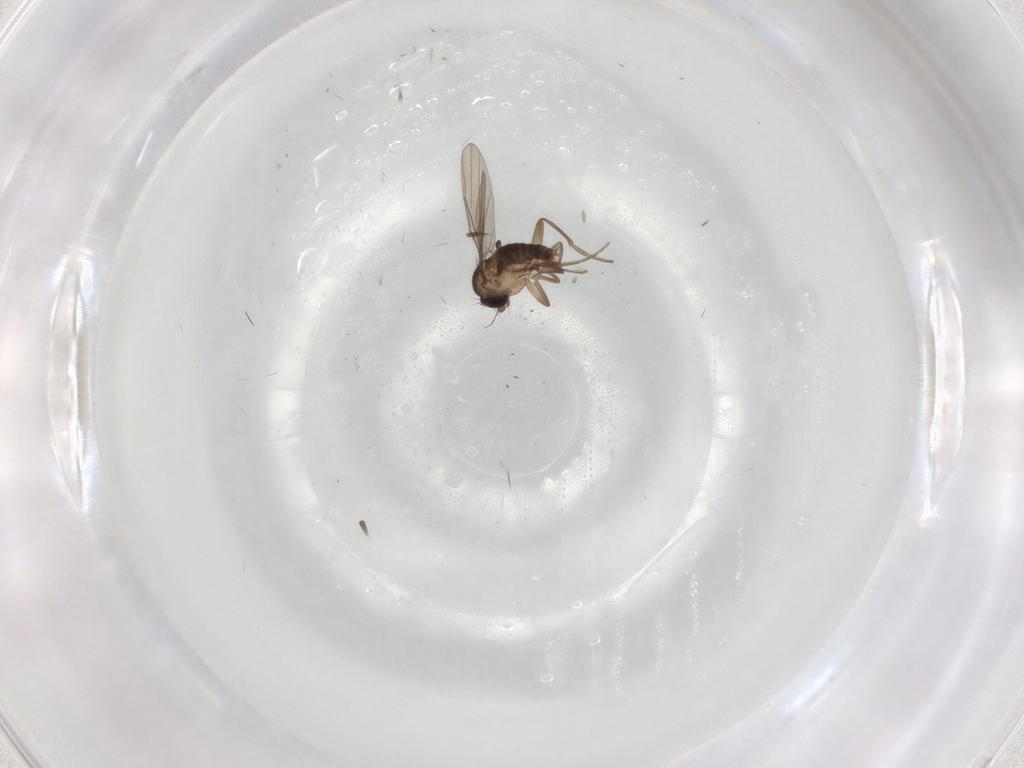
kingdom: Animalia
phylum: Arthropoda
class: Insecta
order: Diptera
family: Phoridae
